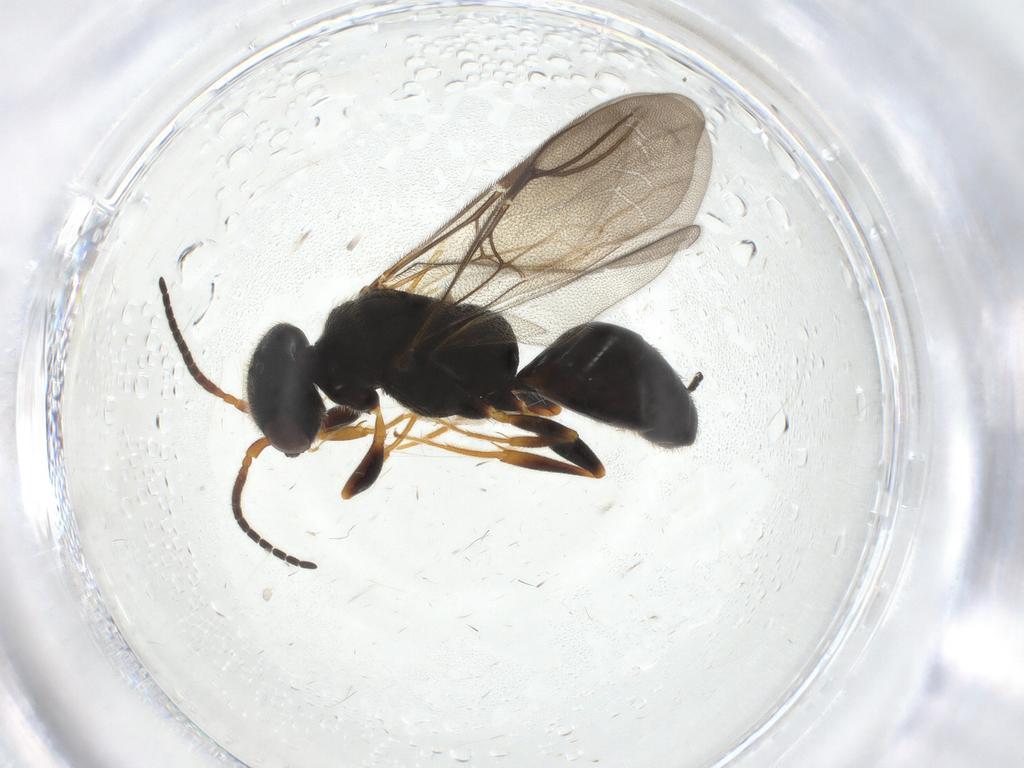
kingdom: Animalia
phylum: Arthropoda
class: Insecta
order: Hymenoptera
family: Bethylidae
